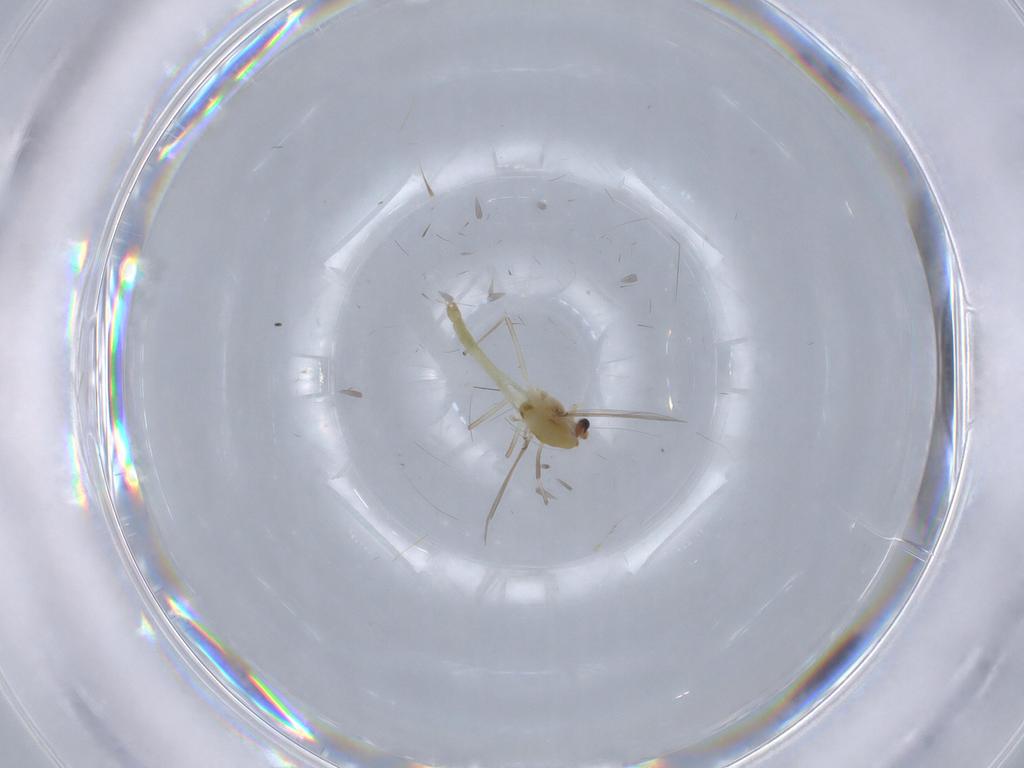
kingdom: Animalia
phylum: Arthropoda
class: Insecta
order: Diptera
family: Chironomidae
